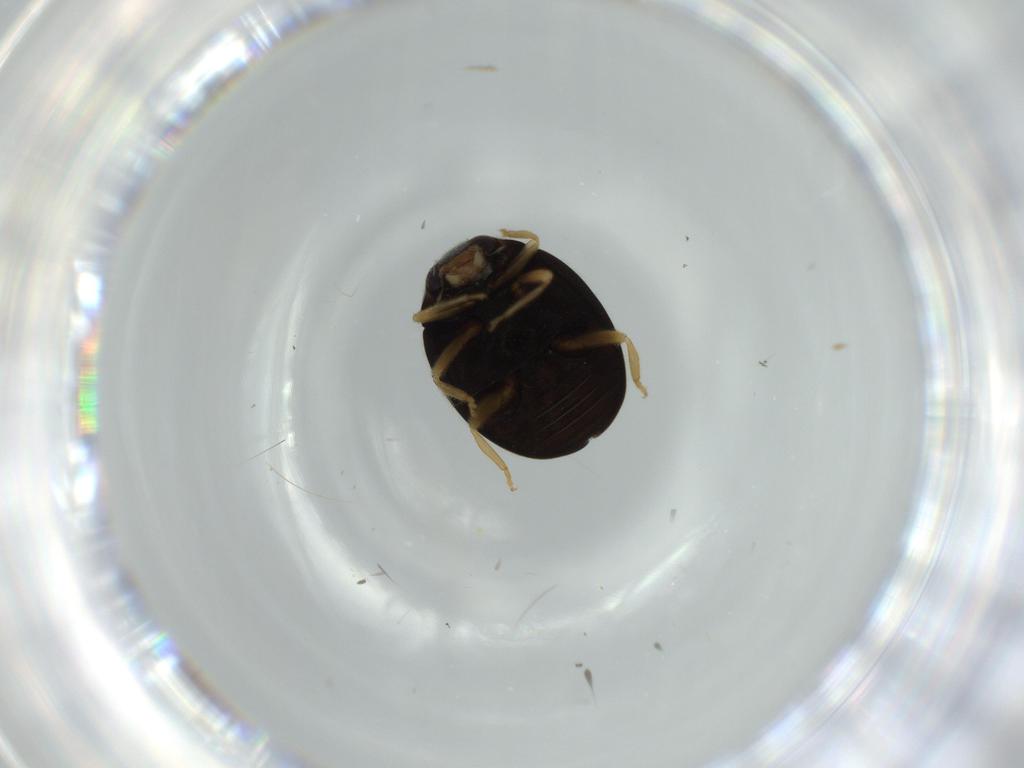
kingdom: Animalia
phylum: Arthropoda
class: Insecta
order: Coleoptera
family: Coccinellidae
